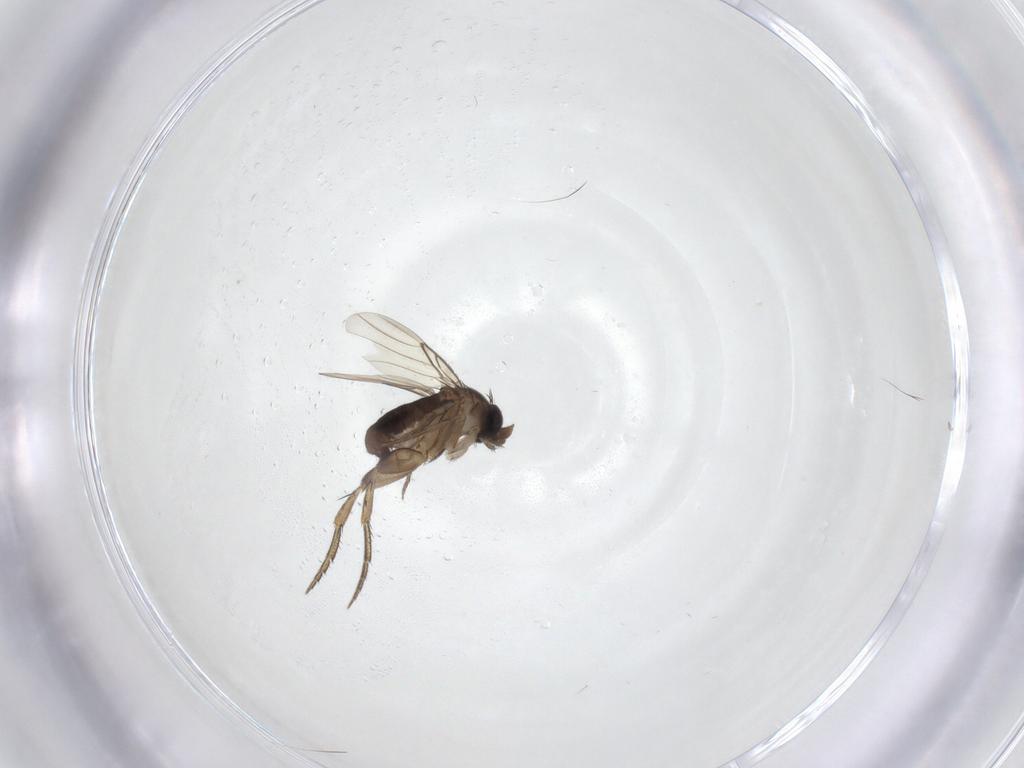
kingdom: Animalia
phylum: Arthropoda
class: Insecta
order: Diptera
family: Phoridae
